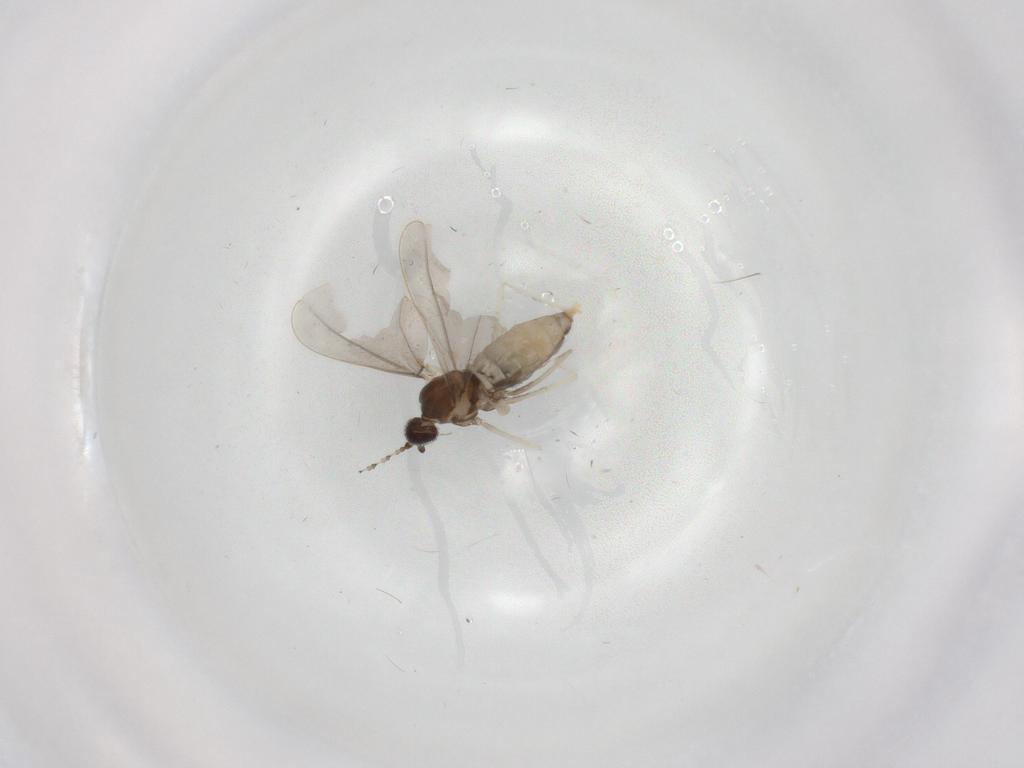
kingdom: Animalia
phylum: Arthropoda
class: Insecta
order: Diptera
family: Cecidomyiidae
